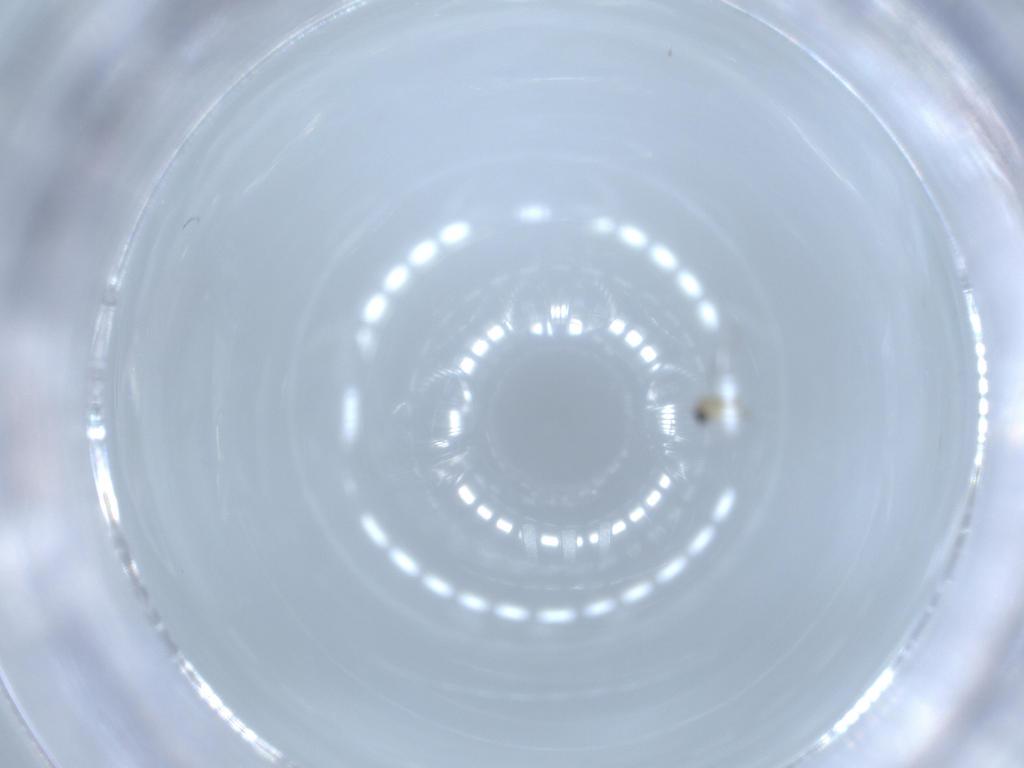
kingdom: Animalia
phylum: Arthropoda
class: Insecta
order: Diptera
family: Cecidomyiidae
